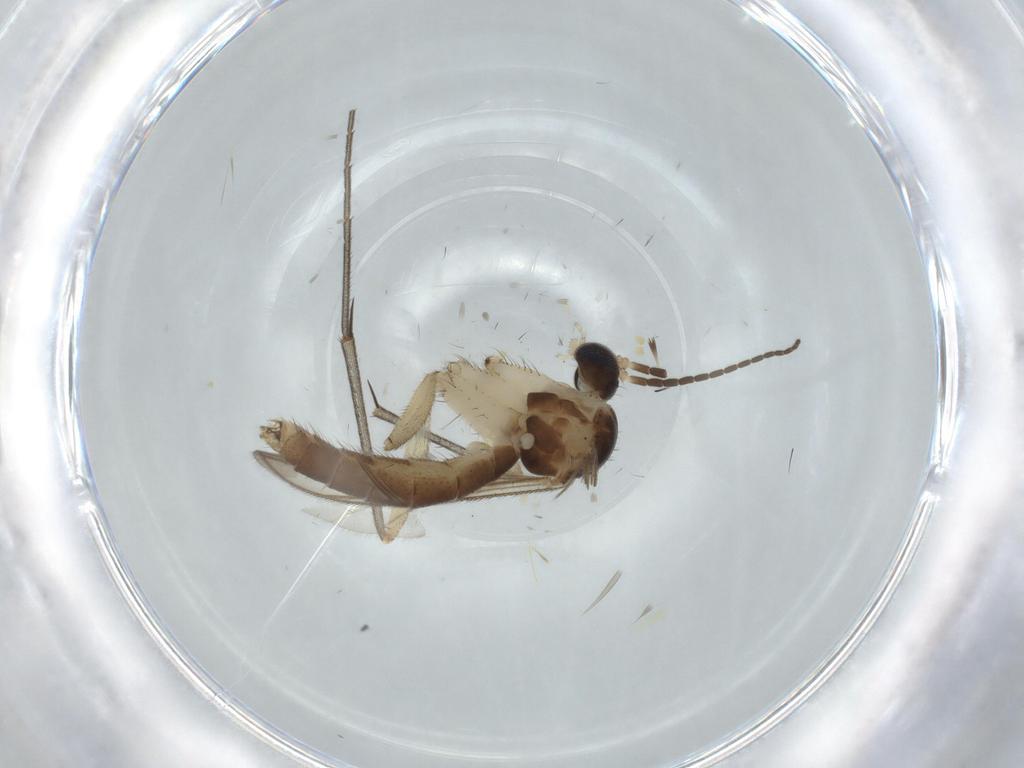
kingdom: Animalia
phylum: Arthropoda
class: Insecta
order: Diptera
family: Mycetophilidae
